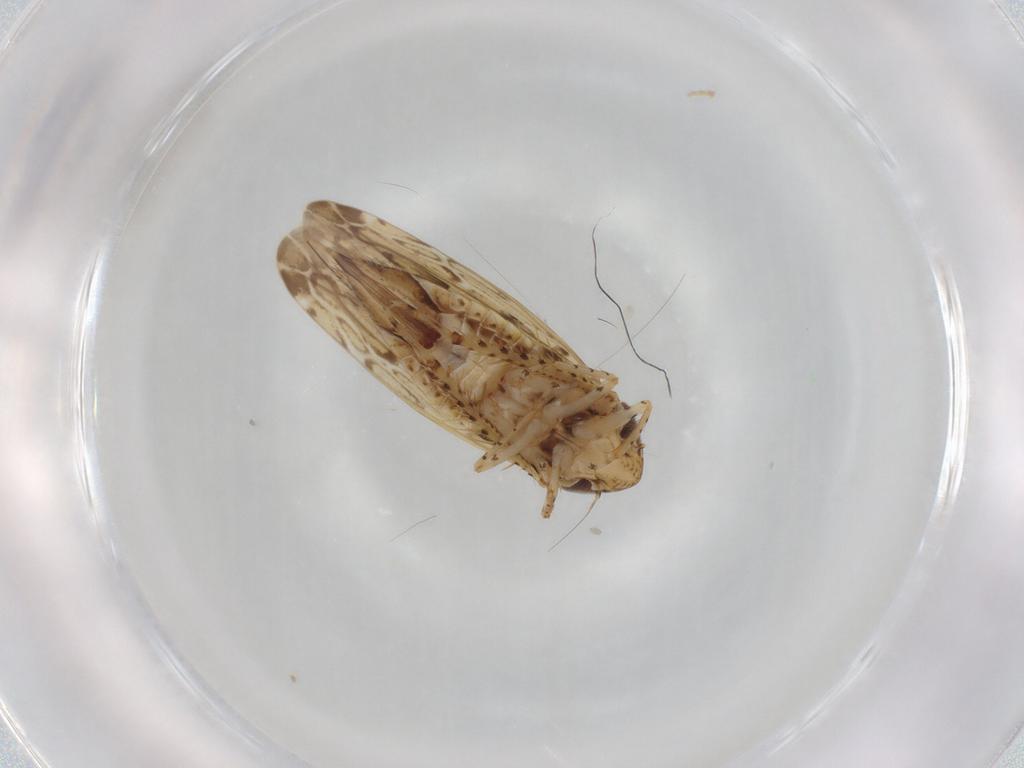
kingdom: Animalia
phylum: Arthropoda
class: Insecta
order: Hemiptera
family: Cicadellidae
